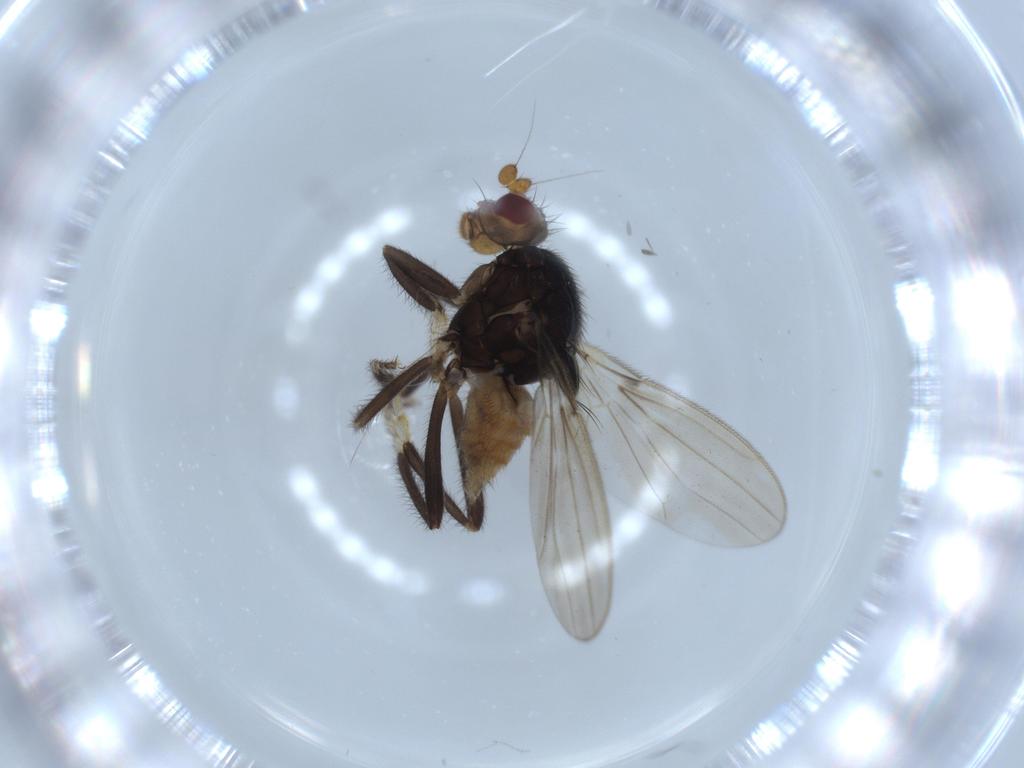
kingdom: Animalia
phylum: Arthropoda
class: Insecta
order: Diptera
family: Sphaeroceridae
